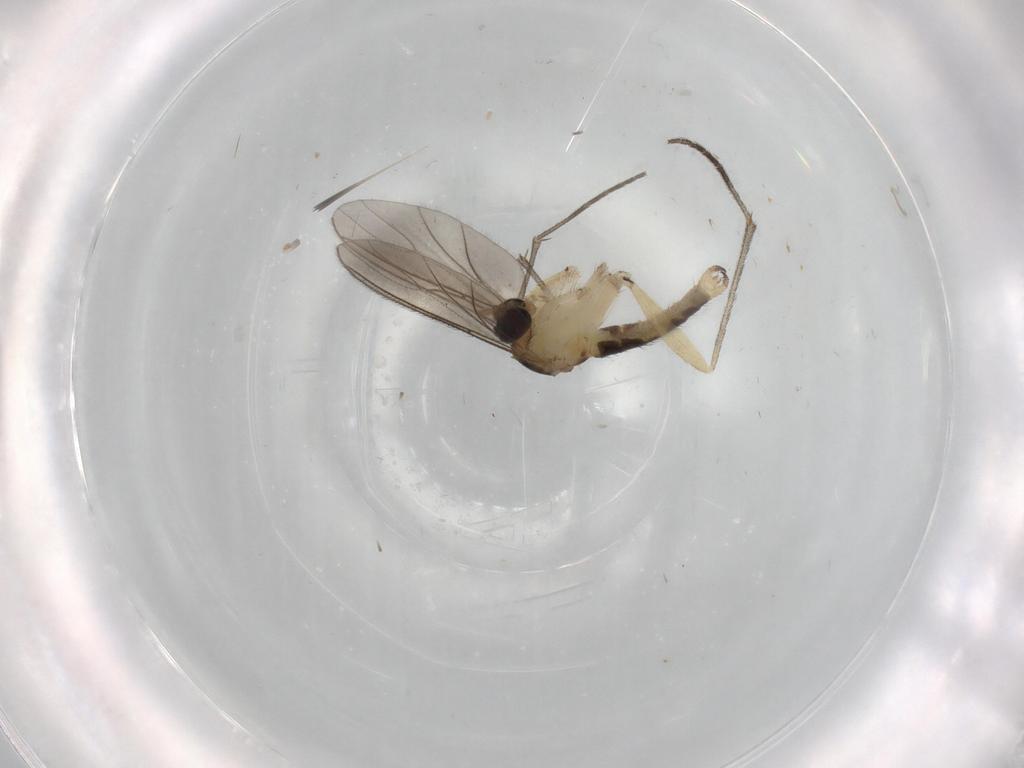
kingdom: Animalia
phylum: Arthropoda
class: Insecta
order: Diptera
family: Sciaridae
